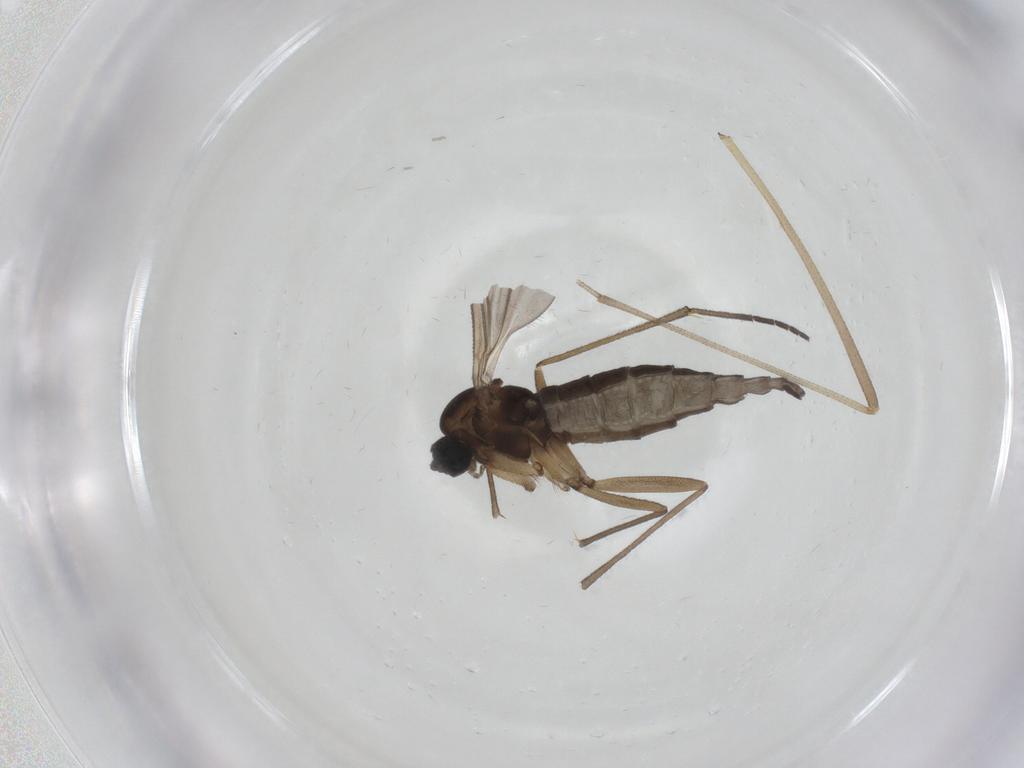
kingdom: Animalia
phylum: Arthropoda
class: Insecta
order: Diptera
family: Sciaridae
